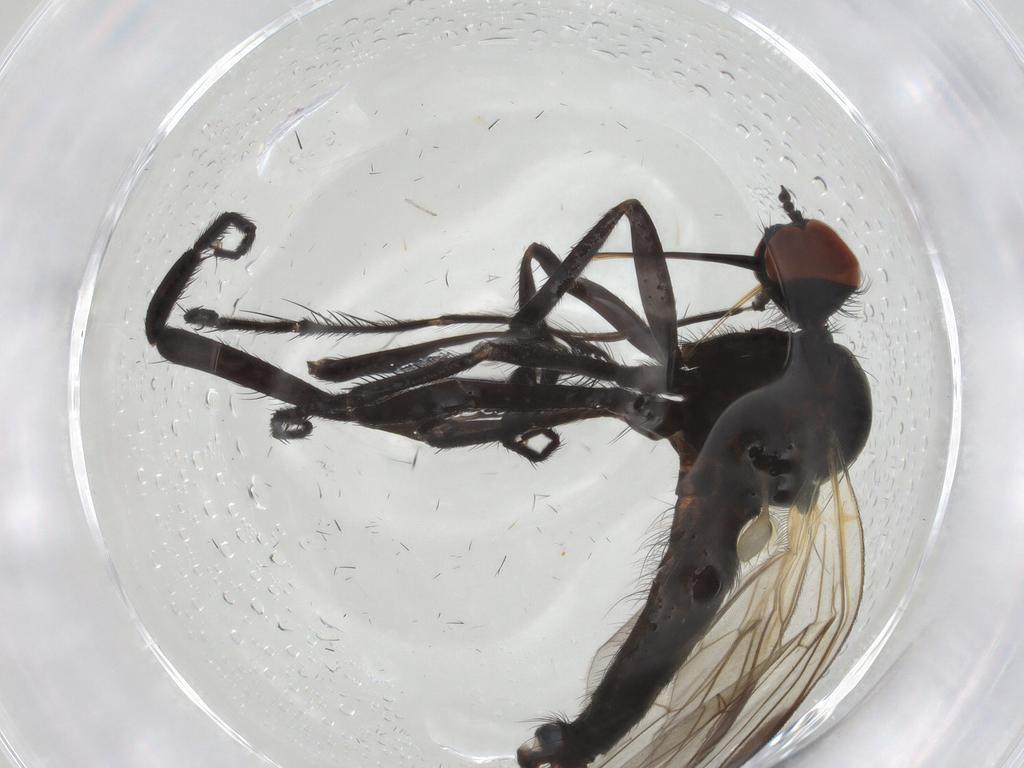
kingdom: Animalia
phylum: Arthropoda
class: Insecta
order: Diptera
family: Empididae
